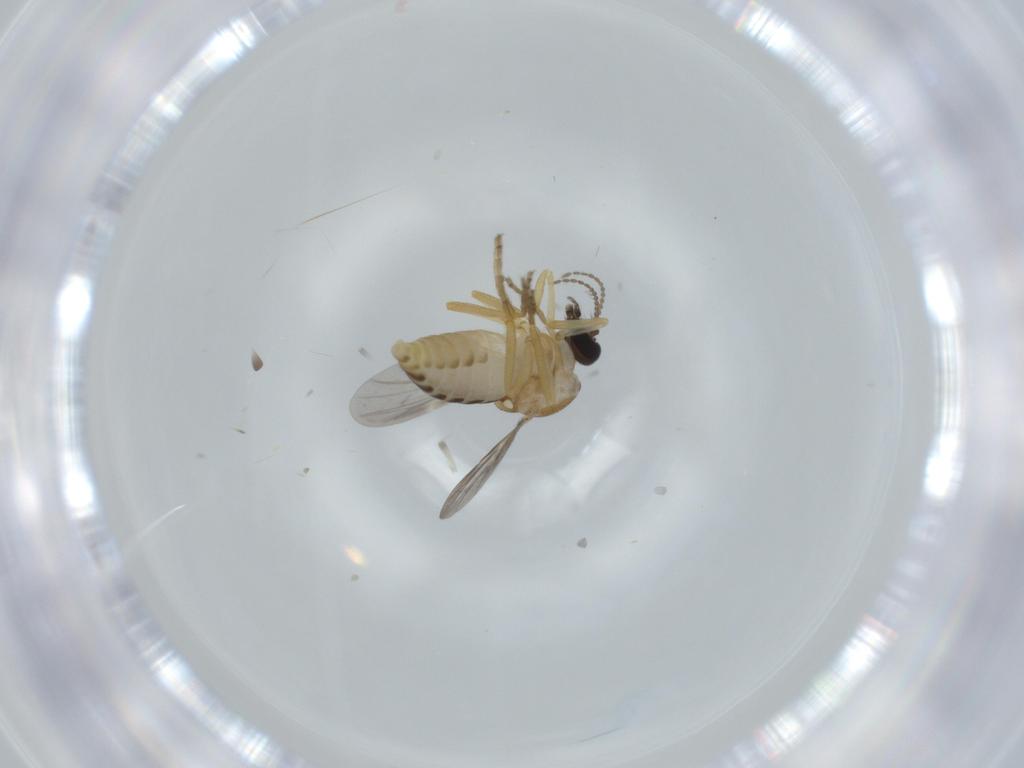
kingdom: Animalia
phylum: Arthropoda
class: Insecta
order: Diptera
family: Ceratopogonidae
